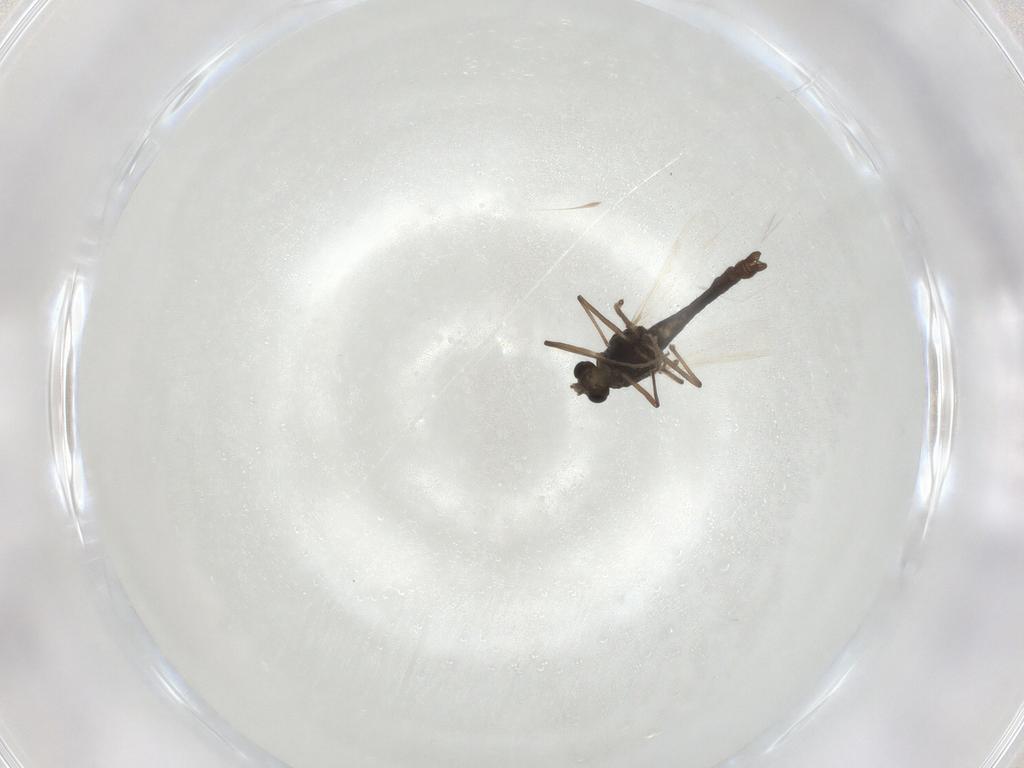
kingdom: Animalia
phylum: Arthropoda
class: Insecta
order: Diptera
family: Chironomidae
